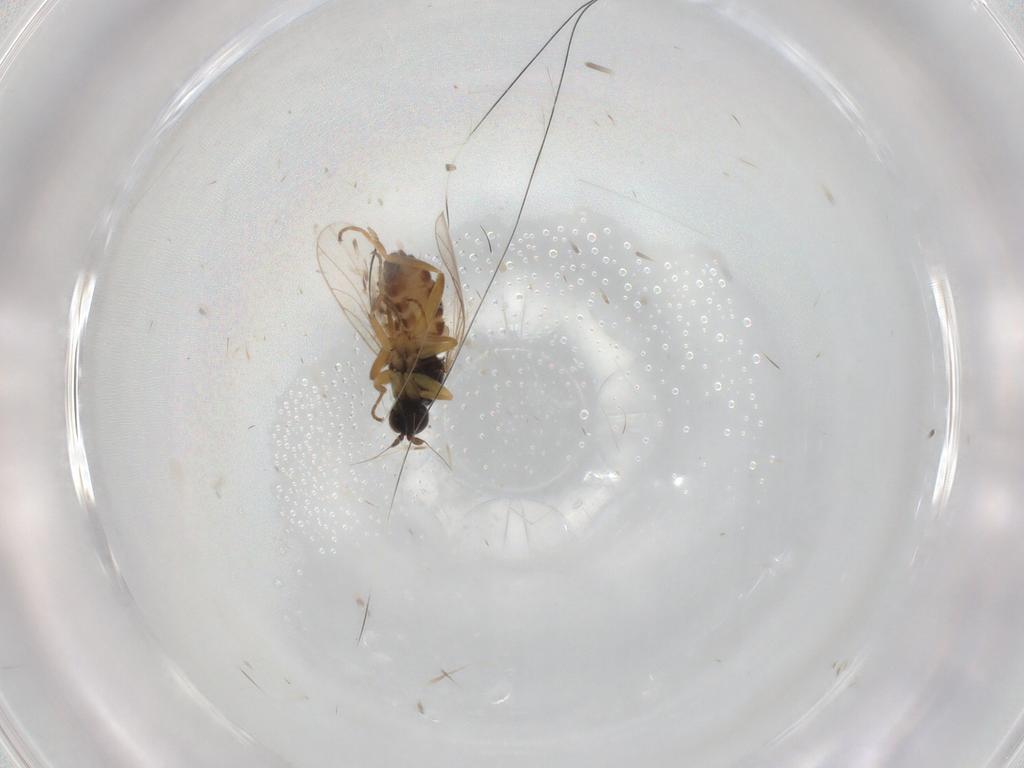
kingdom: Animalia
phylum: Arthropoda
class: Insecta
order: Diptera
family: Hybotidae
